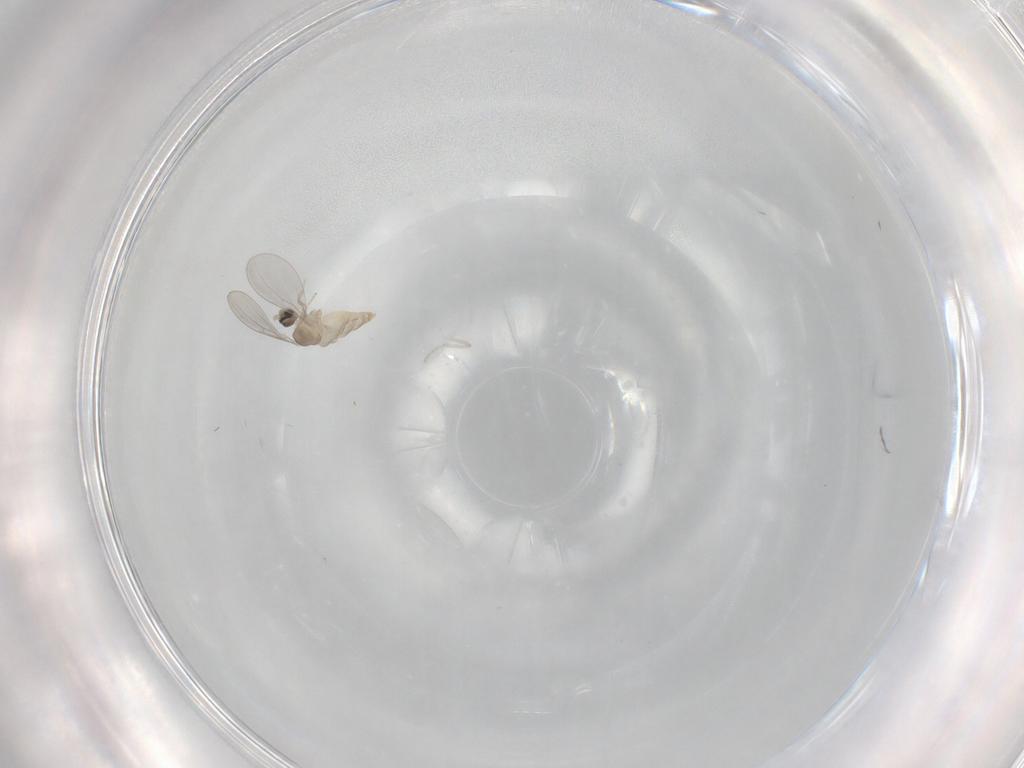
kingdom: Animalia
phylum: Arthropoda
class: Insecta
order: Diptera
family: Cecidomyiidae
